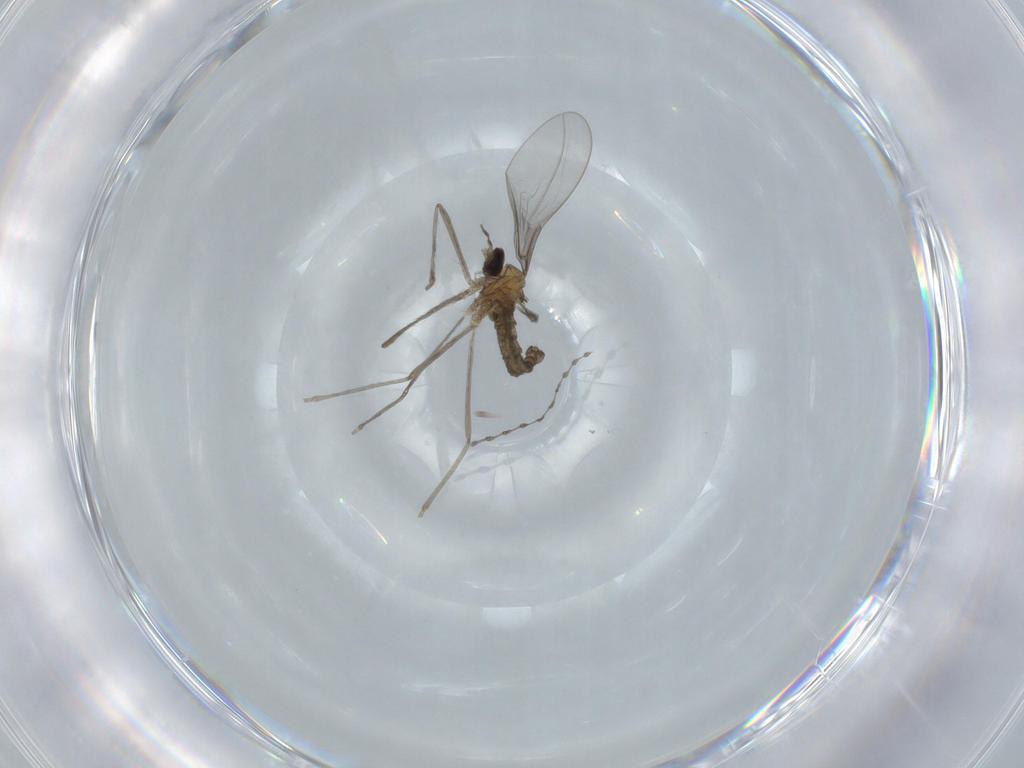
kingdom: Animalia
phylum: Arthropoda
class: Insecta
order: Diptera
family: Cecidomyiidae
